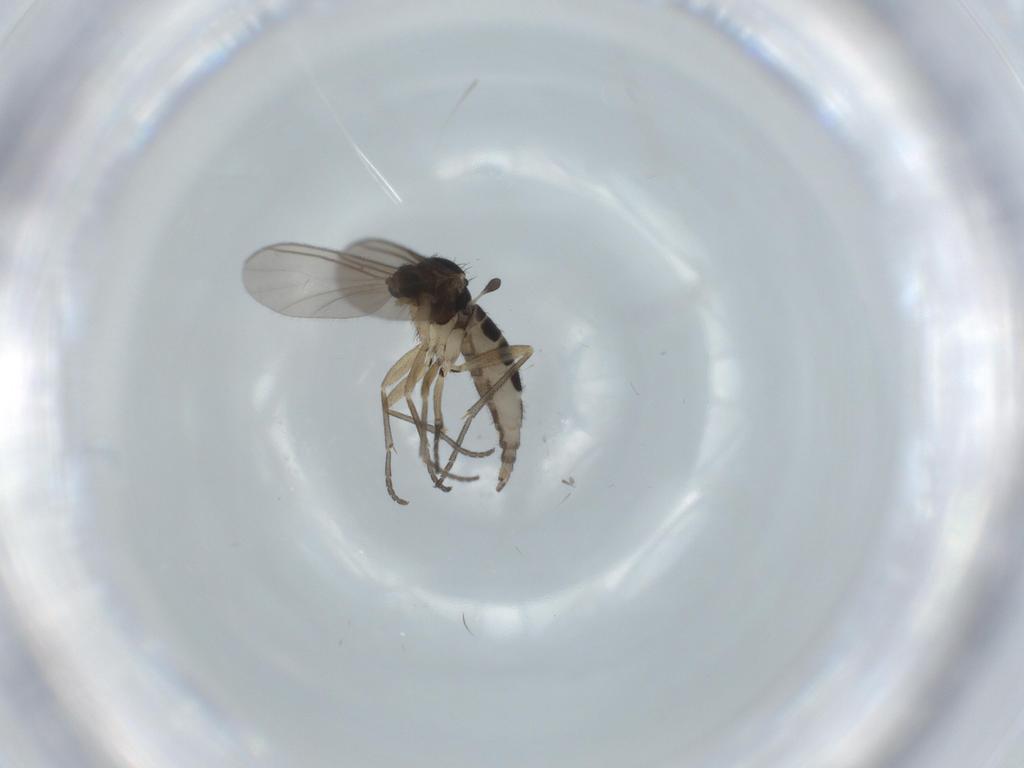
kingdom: Animalia
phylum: Arthropoda
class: Insecta
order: Diptera
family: Sciaridae
